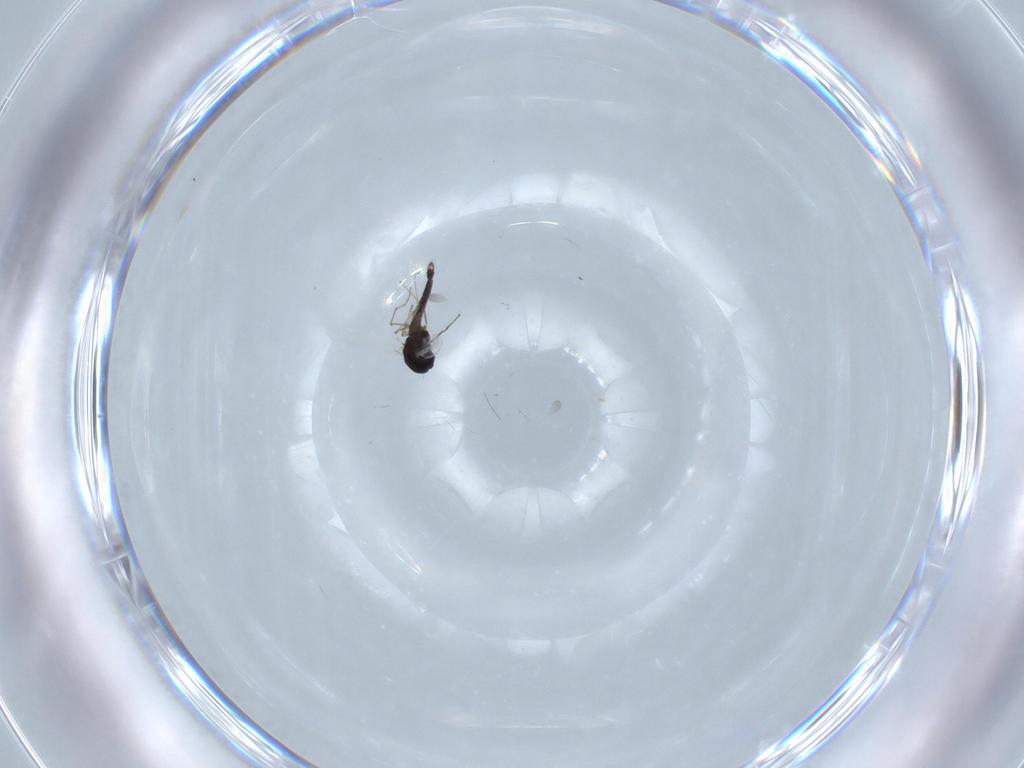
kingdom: Animalia
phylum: Arthropoda
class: Insecta
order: Diptera
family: Chironomidae
